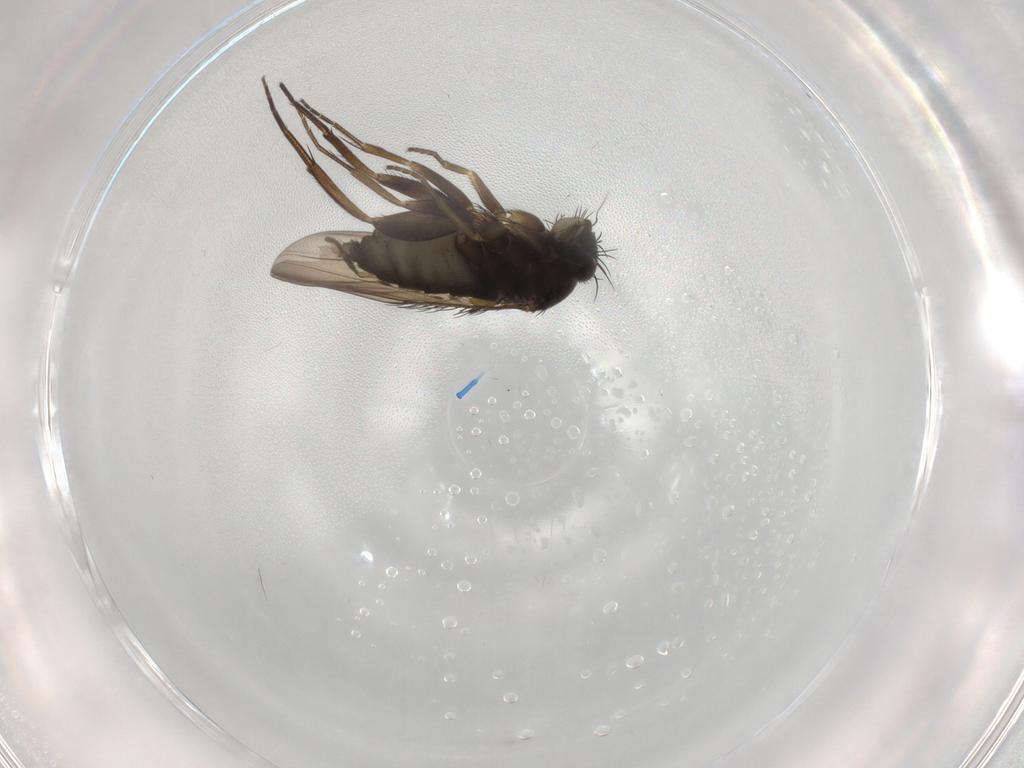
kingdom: Animalia
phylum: Arthropoda
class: Insecta
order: Diptera
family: Phoridae
